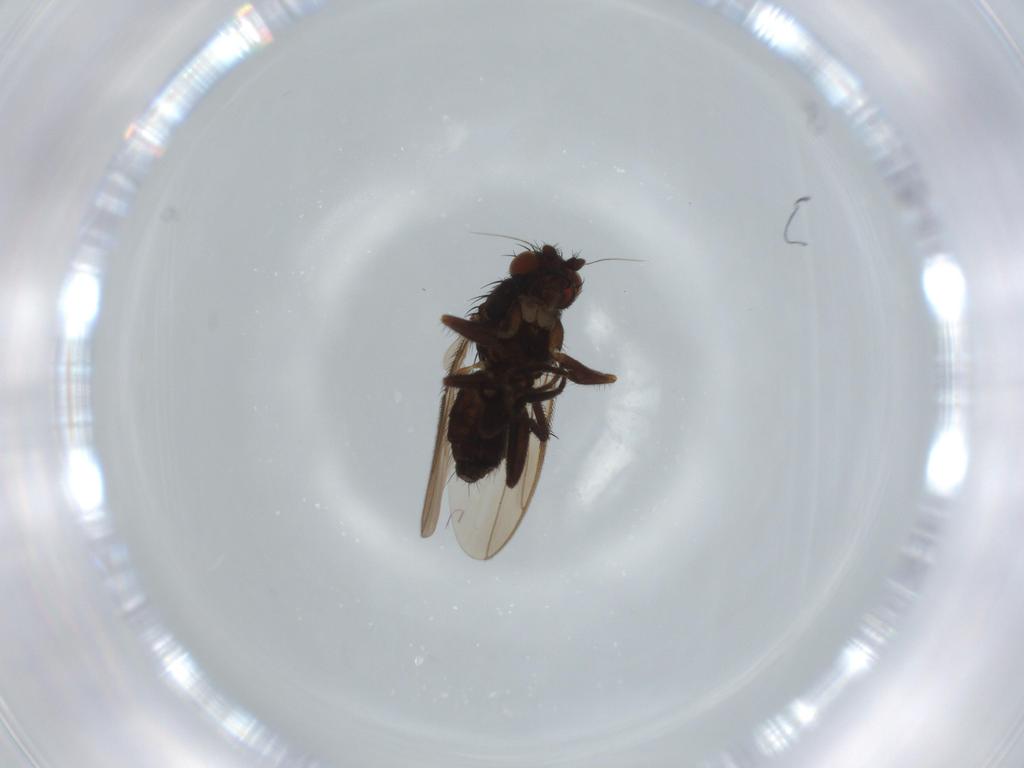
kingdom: Animalia
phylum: Arthropoda
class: Insecta
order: Diptera
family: Sphaeroceridae
